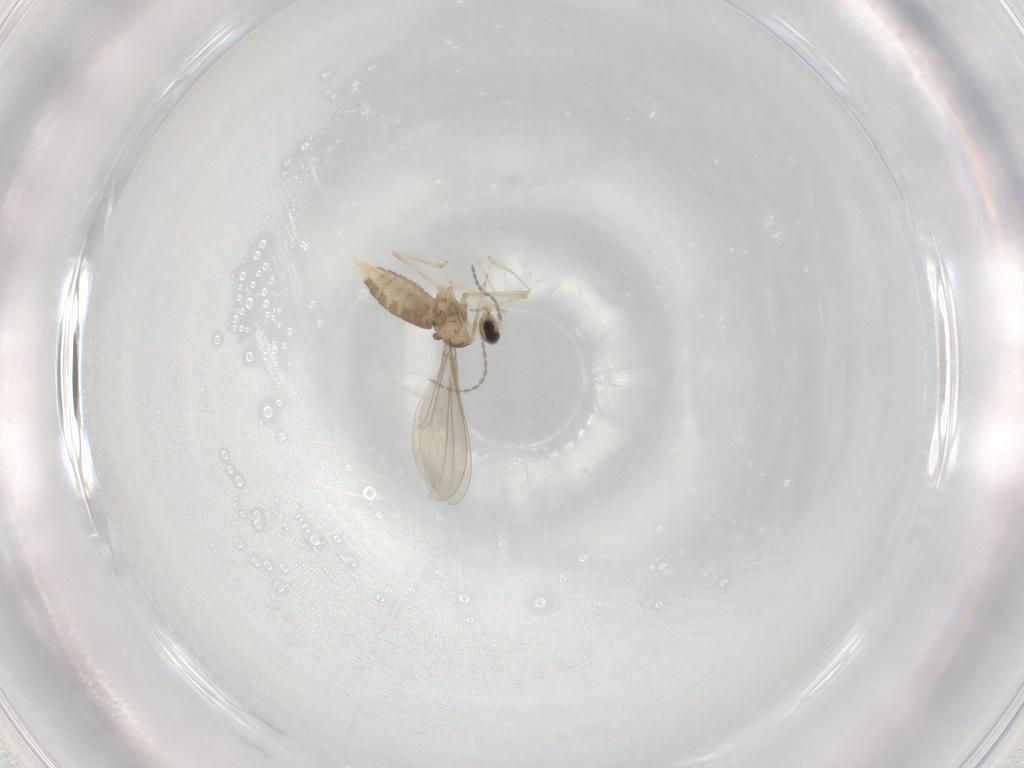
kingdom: Animalia
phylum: Arthropoda
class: Insecta
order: Diptera
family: Cecidomyiidae
